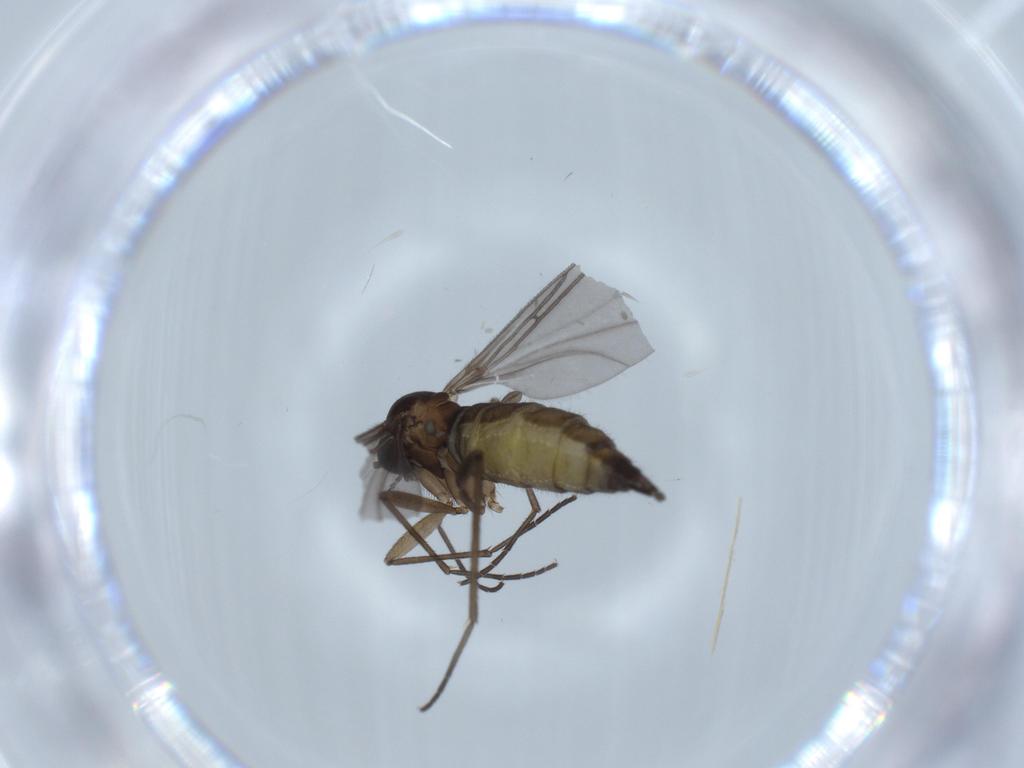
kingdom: Animalia
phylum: Arthropoda
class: Insecta
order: Diptera
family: Sciaridae
